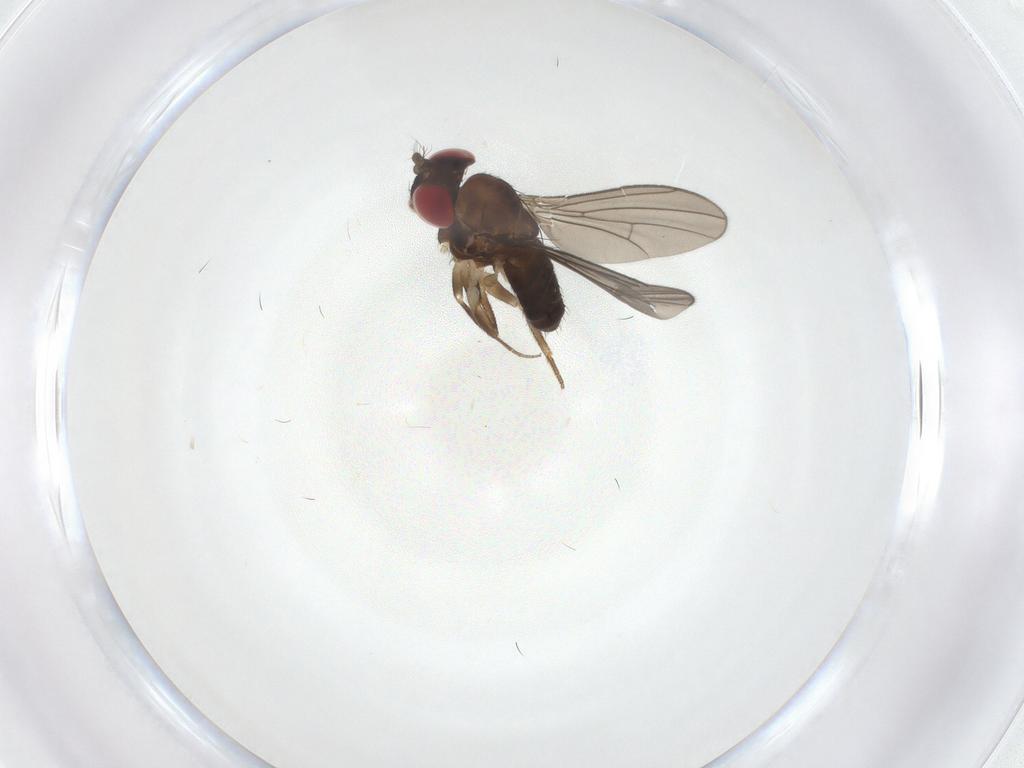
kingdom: Animalia
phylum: Arthropoda
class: Insecta
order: Diptera
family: Drosophilidae
